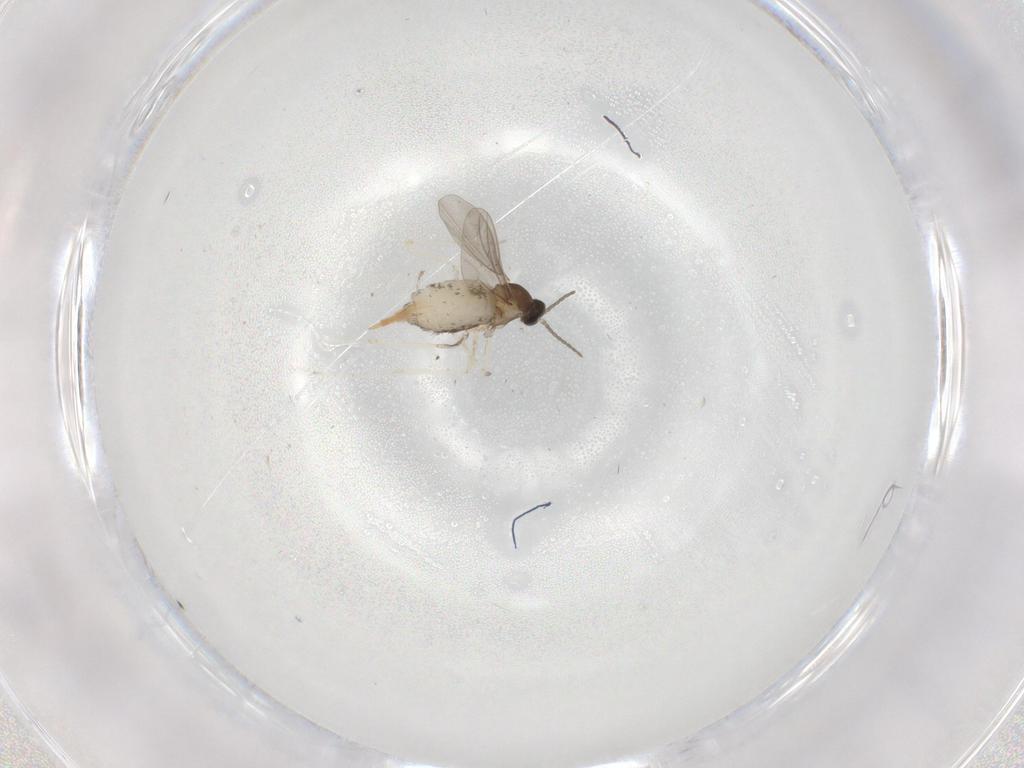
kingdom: Animalia
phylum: Arthropoda
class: Insecta
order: Diptera
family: Cecidomyiidae
